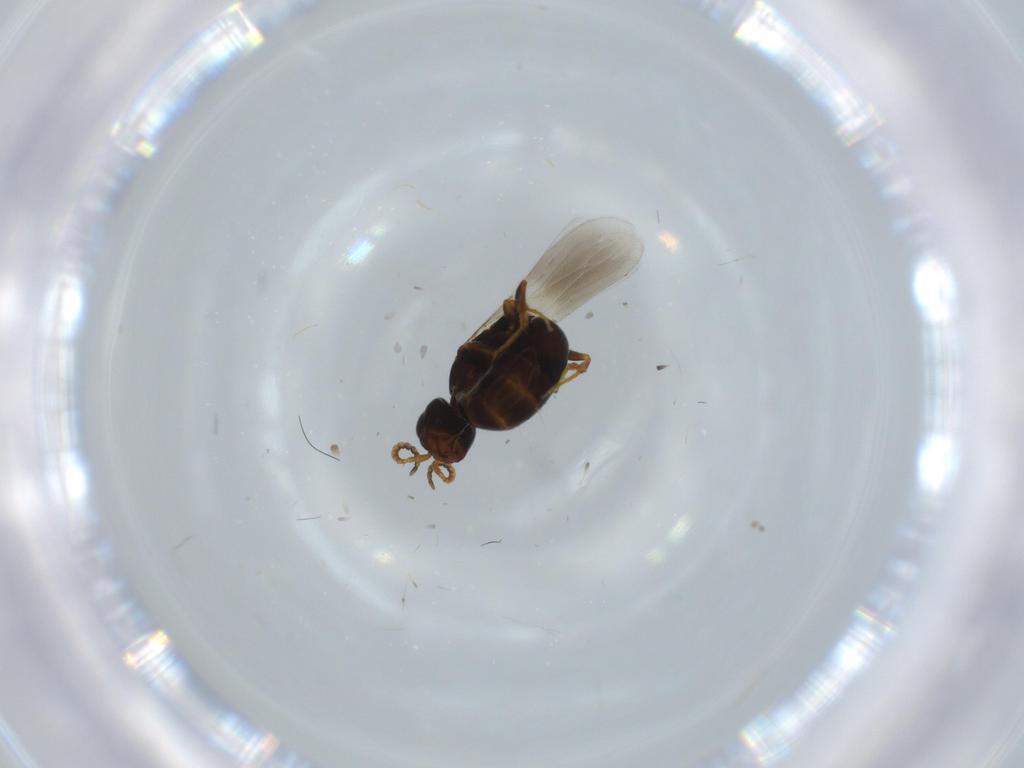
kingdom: Animalia
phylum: Arthropoda
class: Insecta
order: Hymenoptera
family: Bethylidae
